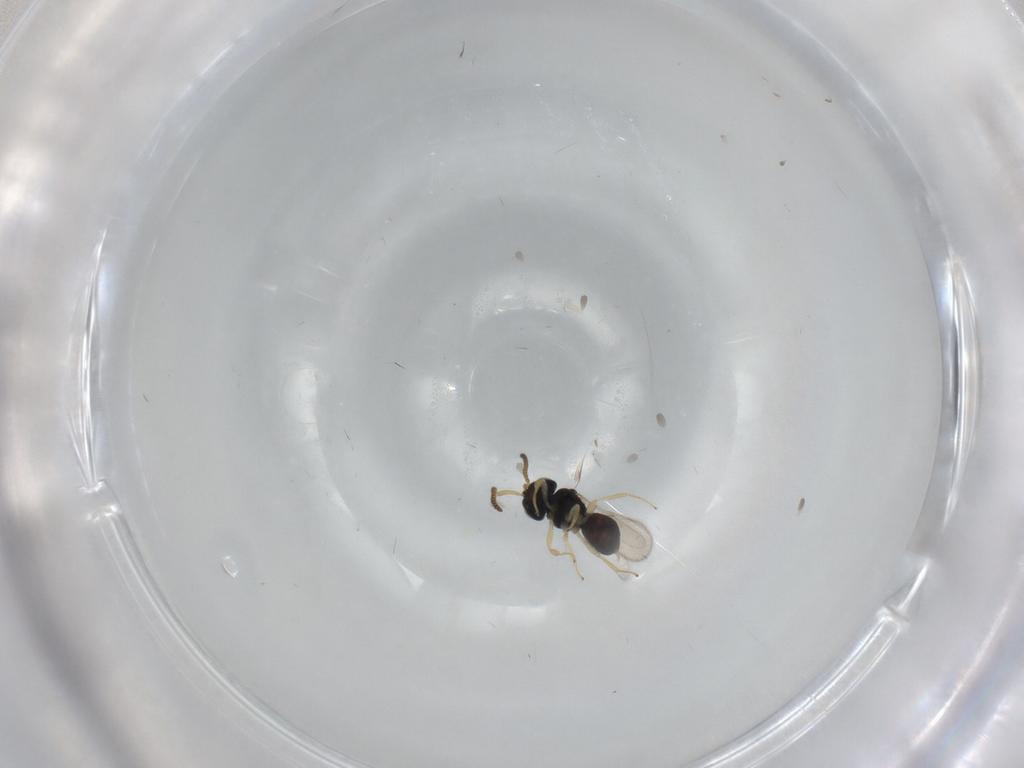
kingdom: Animalia
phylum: Arthropoda
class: Insecta
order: Hymenoptera
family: Scelionidae
